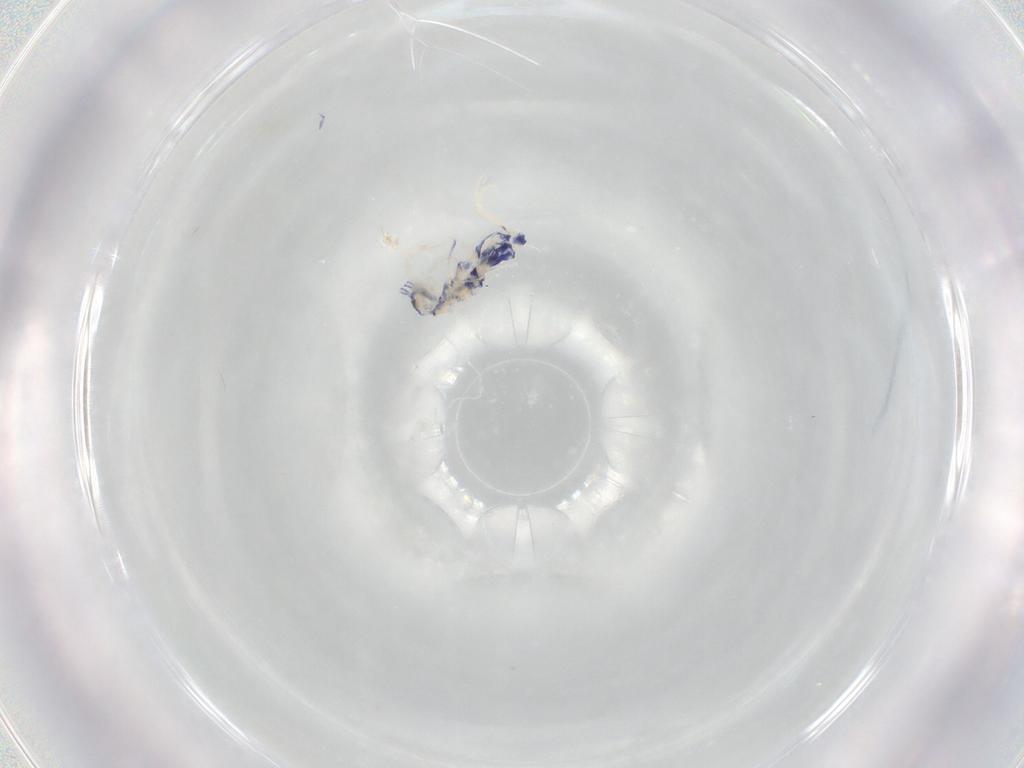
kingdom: Animalia
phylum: Arthropoda
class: Collembola
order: Entomobryomorpha
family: Entomobryidae
